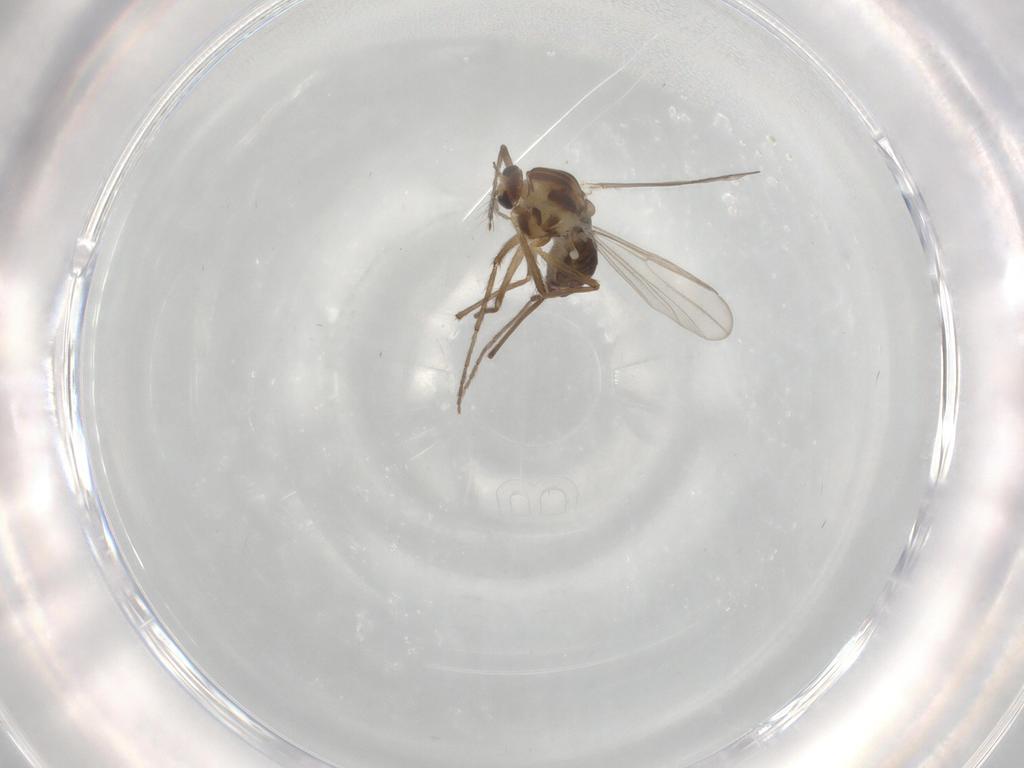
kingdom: Animalia
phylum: Arthropoda
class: Insecta
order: Diptera
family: Chironomidae
